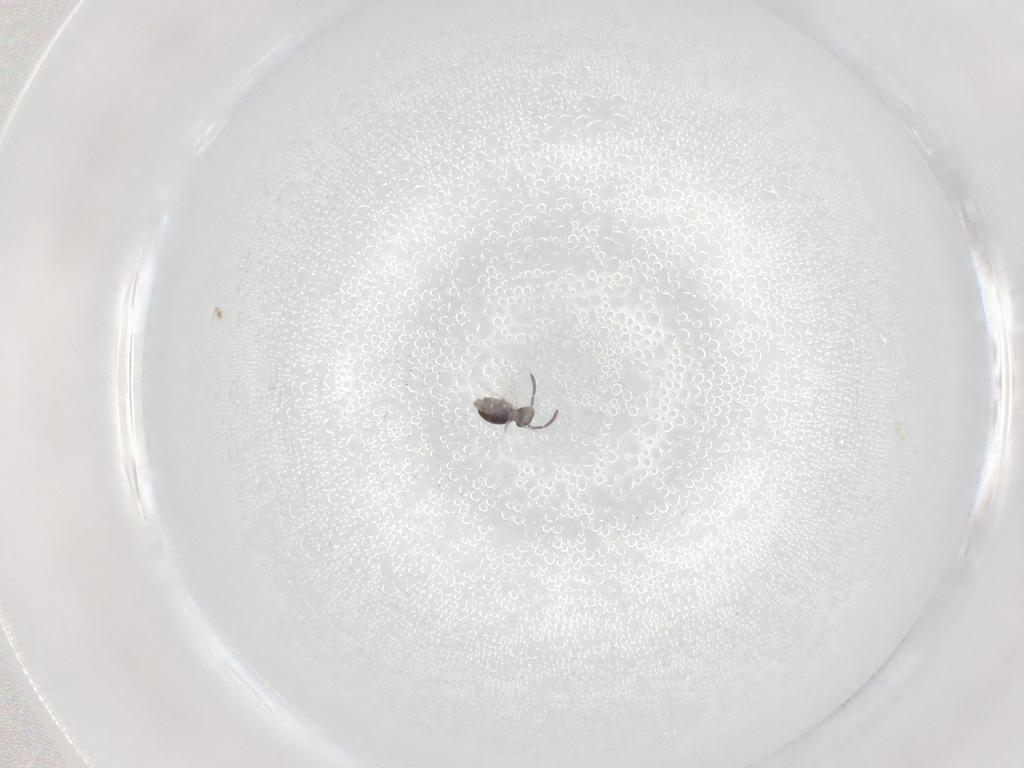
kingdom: Animalia
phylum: Arthropoda
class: Collembola
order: Symphypleona
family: Katiannidae
